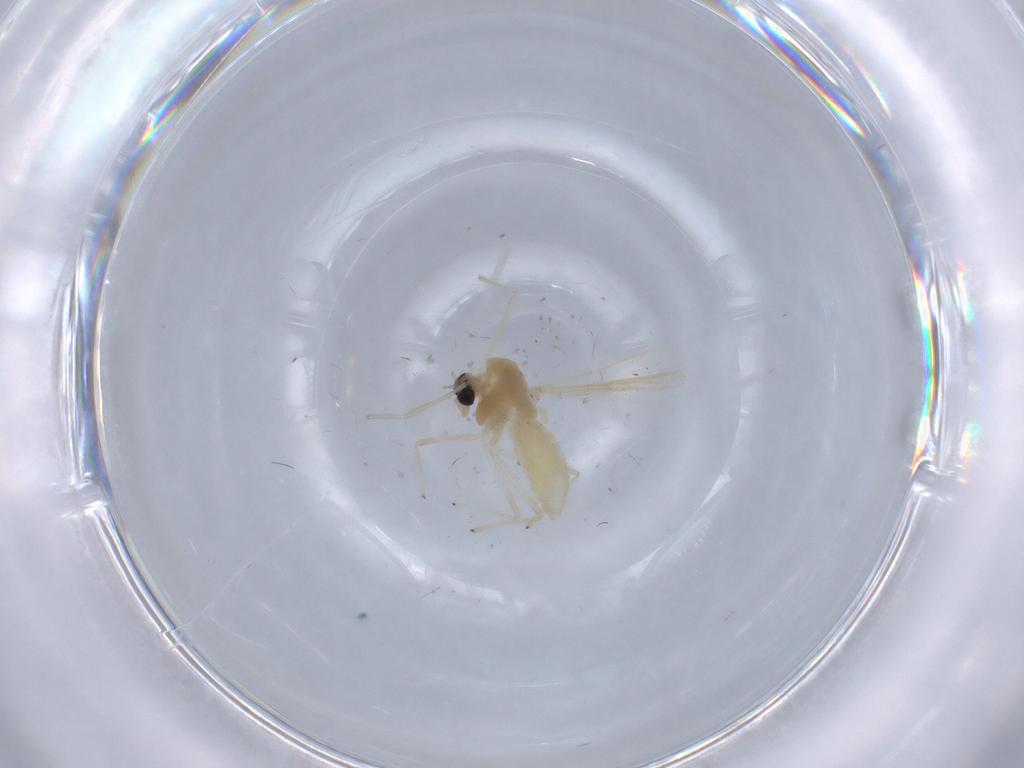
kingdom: Animalia
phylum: Arthropoda
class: Insecta
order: Diptera
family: Chironomidae
